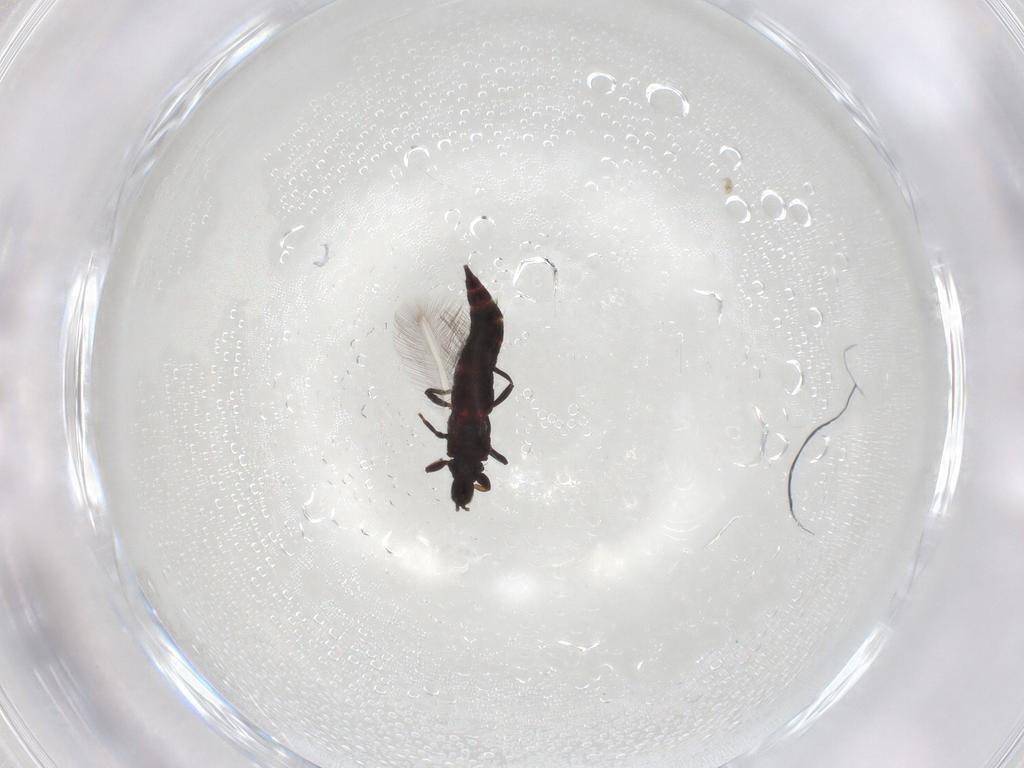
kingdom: Animalia
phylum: Arthropoda
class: Insecta
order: Thysanoptera
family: Phlaeothripidae
